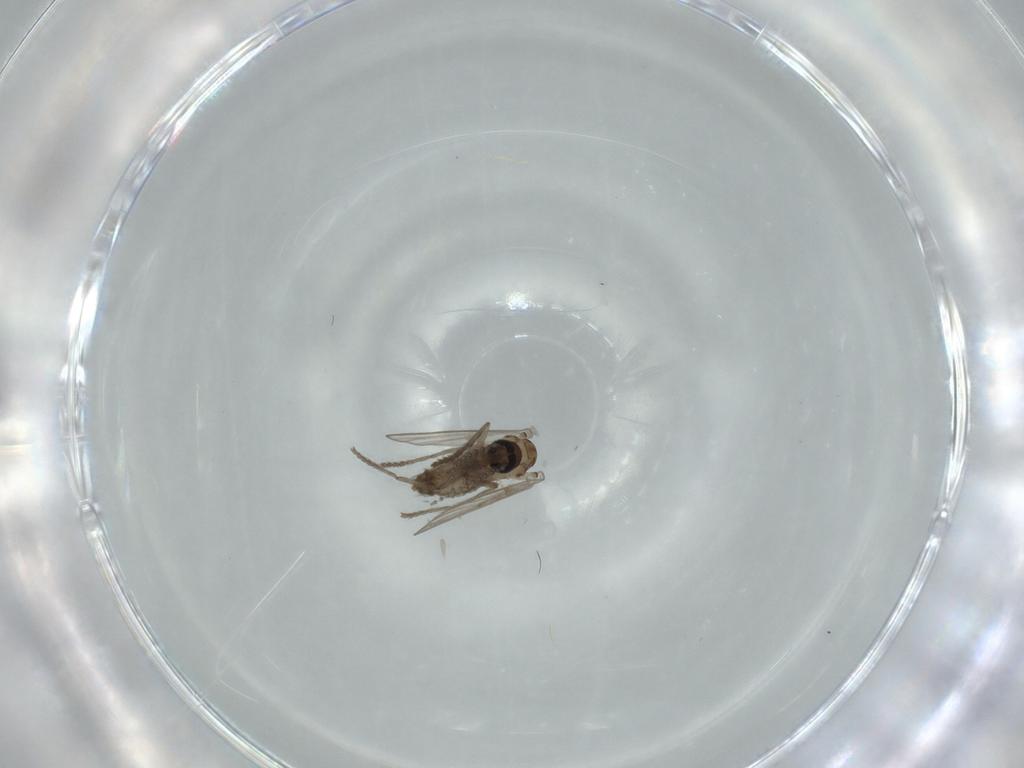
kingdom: Animalia
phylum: Arthropoda
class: Insecta
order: Diptera
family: Psychodidae
